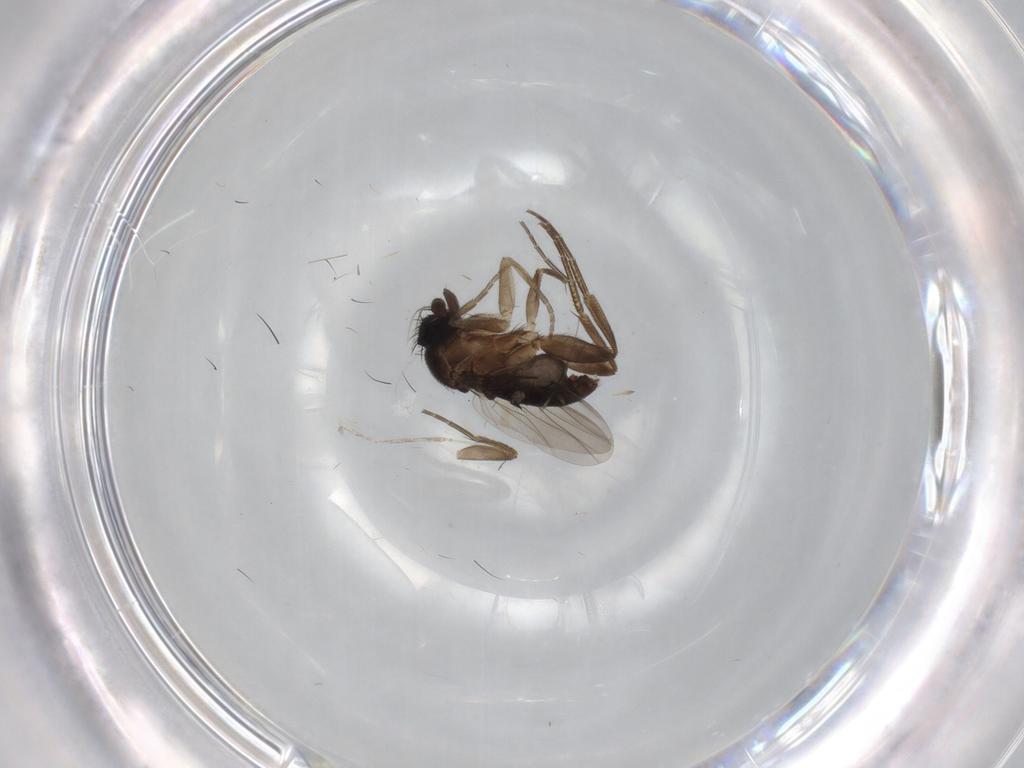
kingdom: Animalia
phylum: Arthropoda
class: Insecta
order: Diptera
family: Phoridae
